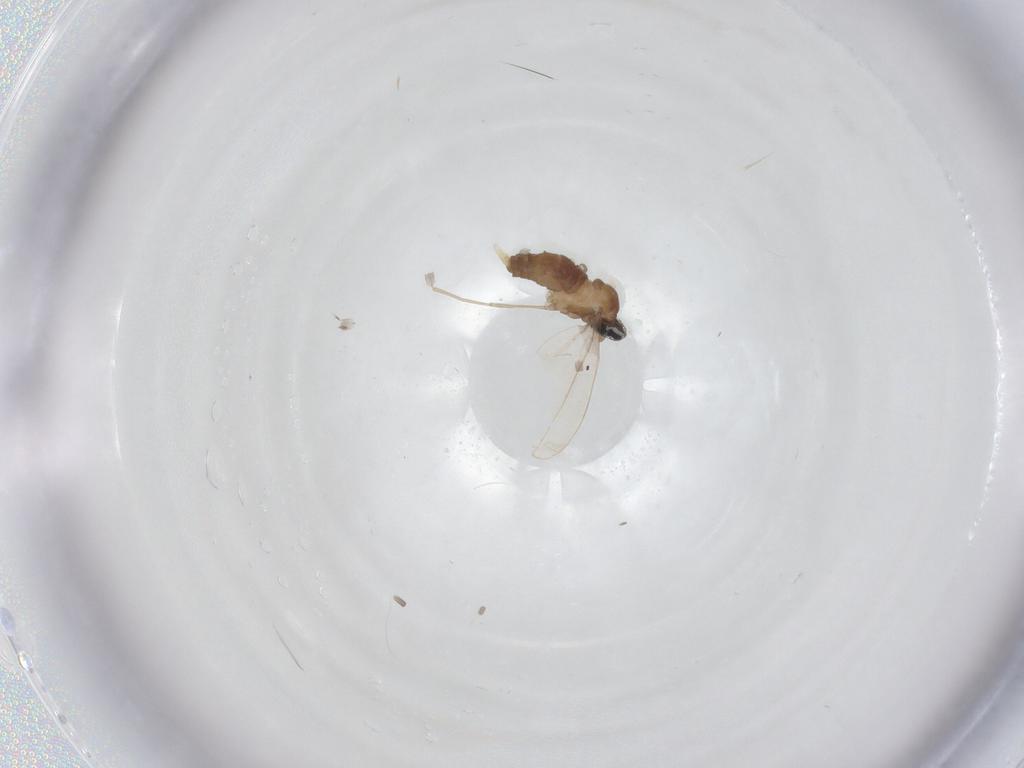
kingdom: Animalia
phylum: Arthropoda
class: Insecta
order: Diptera
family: Cecidomyiidae
